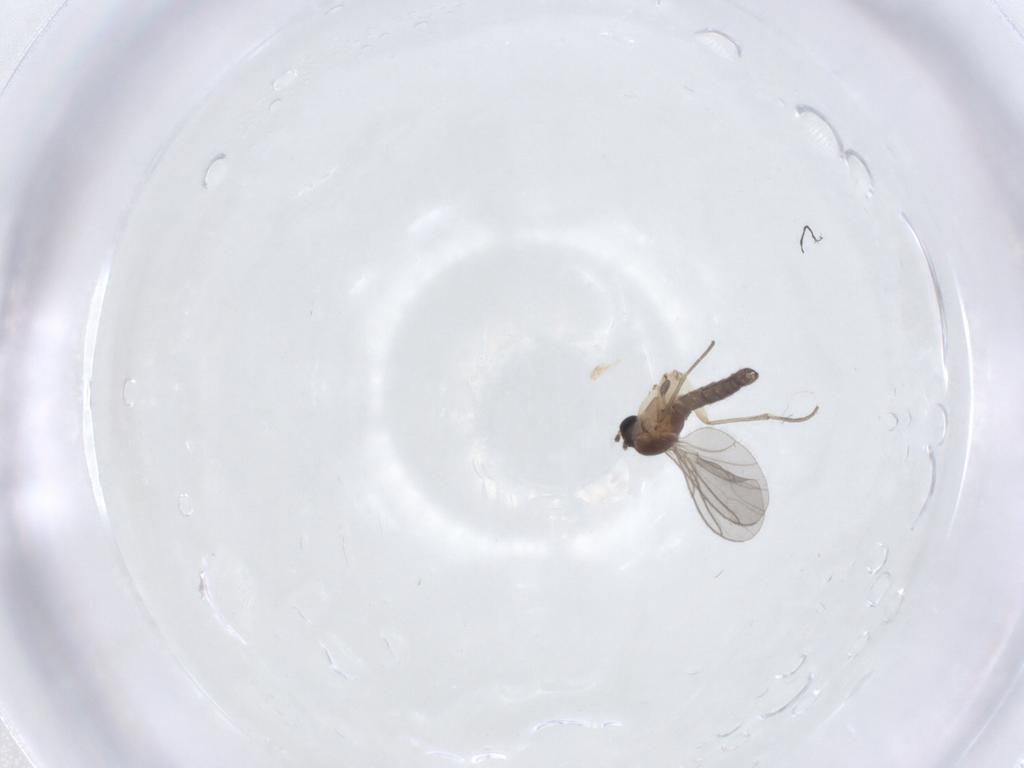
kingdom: Animalia
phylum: Arthropoda
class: Insecta
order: Diptera
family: Sciaridae
